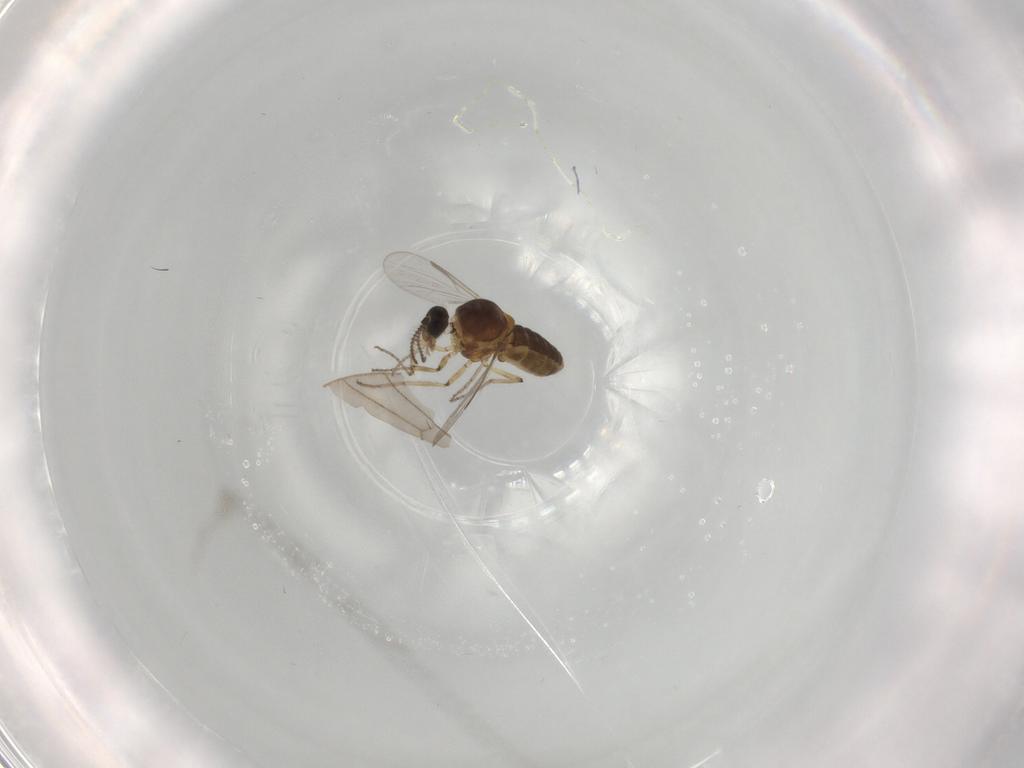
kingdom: Animalia
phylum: Arthropoda
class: Insecta
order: Diptera
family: Ceratopogonidae
